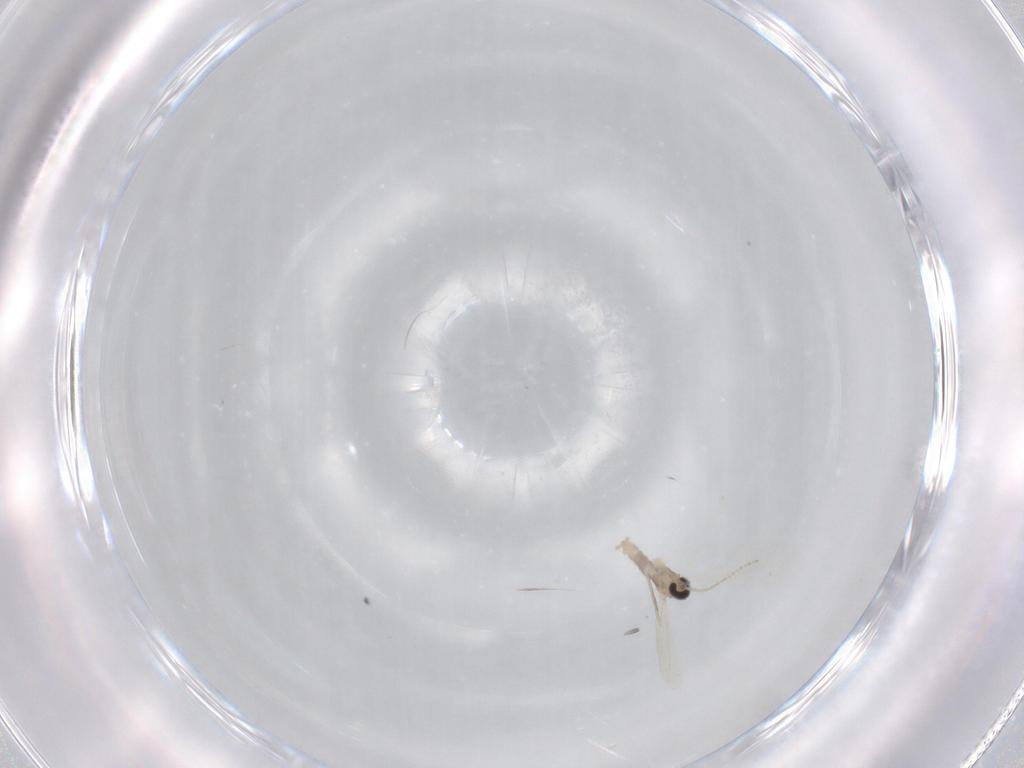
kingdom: Animalia
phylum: Arthropoda
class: Insecta
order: Diptera
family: Cecidomyiidae
